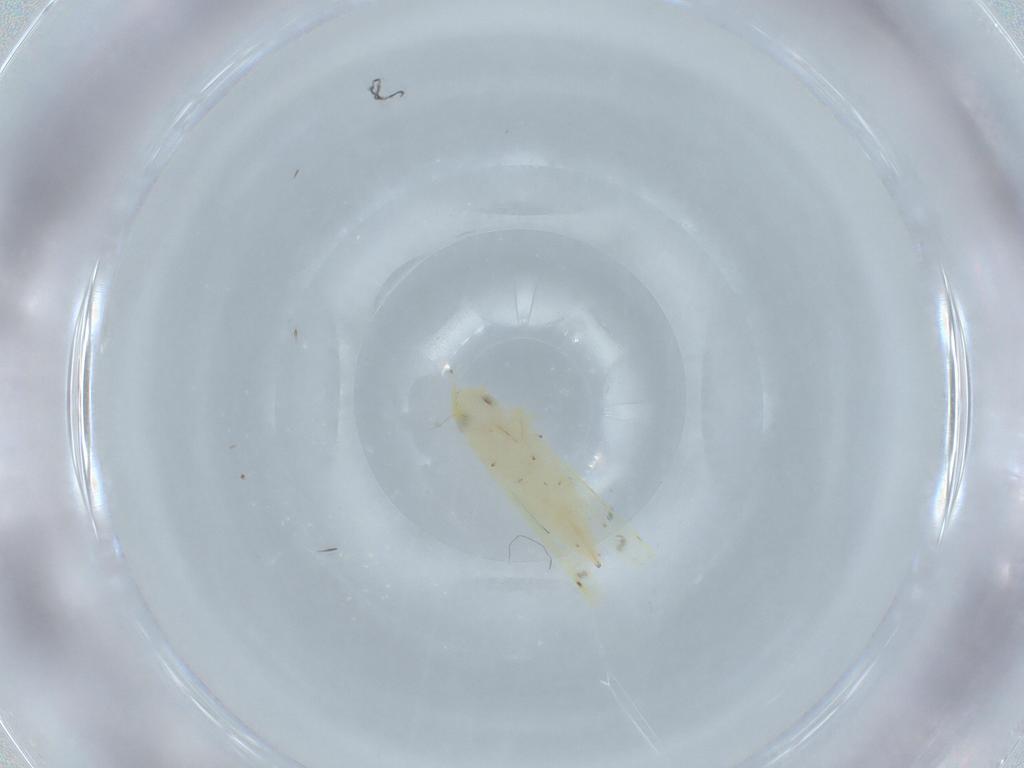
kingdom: Animalia
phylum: Arthropoda
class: Insecta
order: Hemiptera
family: Cicadellidae
